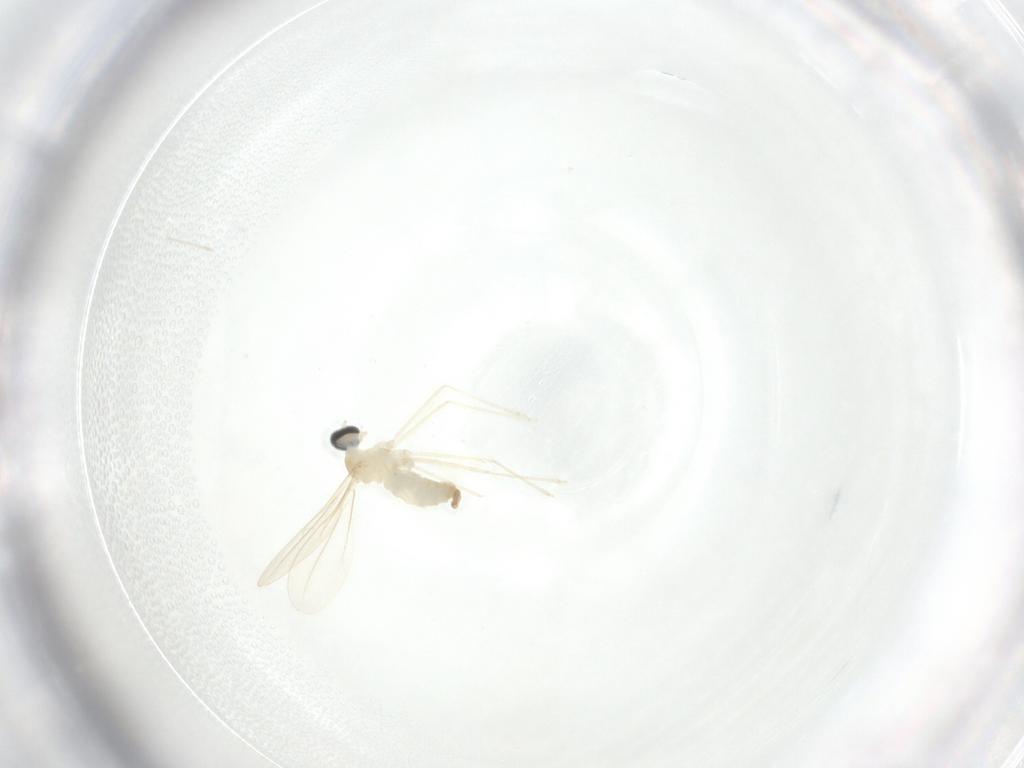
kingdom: Animalia
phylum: Arthropoda
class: Insecta
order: Diptera
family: Cecidomyiidae
